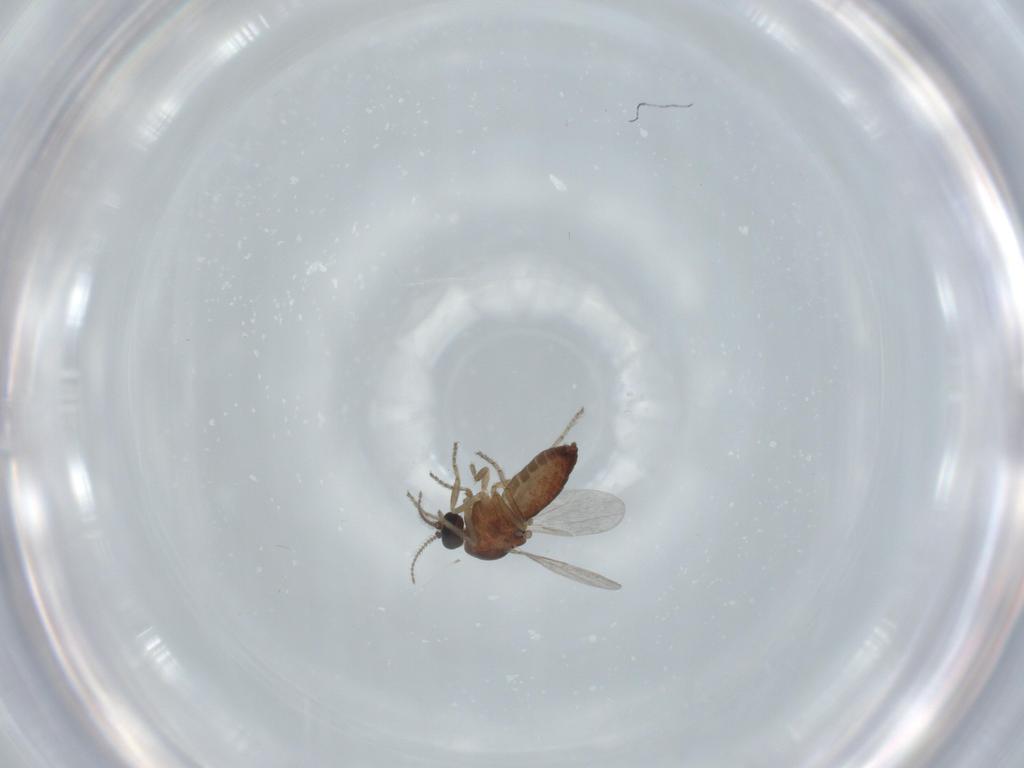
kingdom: Animalia
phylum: Arthropoda
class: Insecta
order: Diptera
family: Ceratopogonidae
